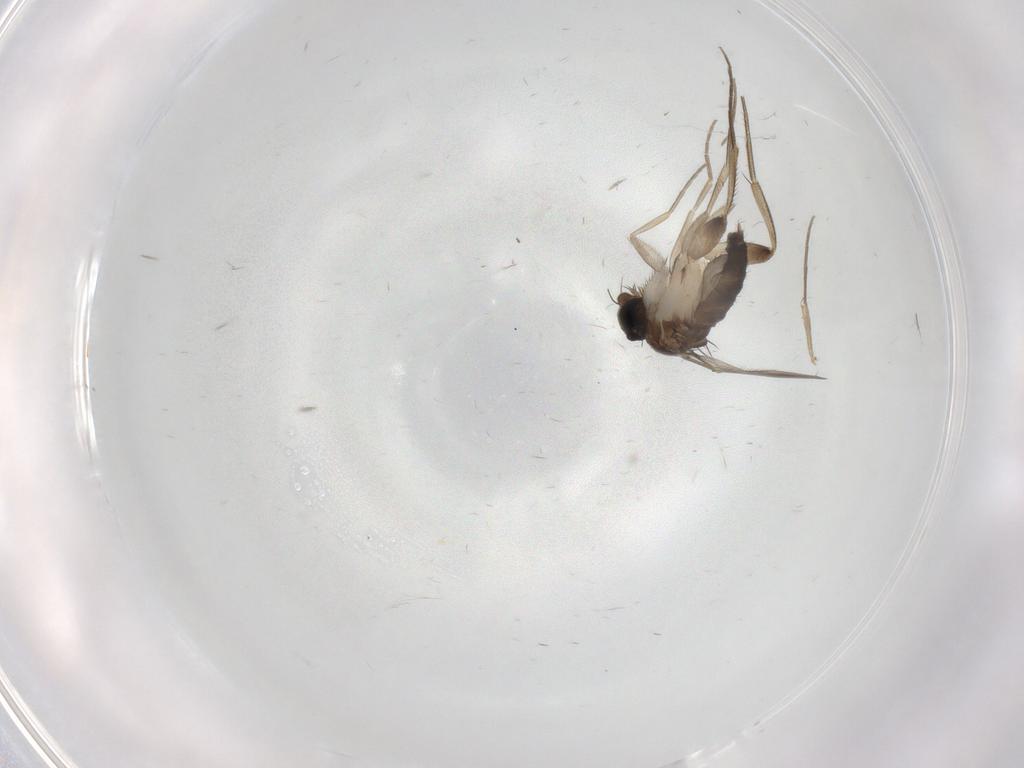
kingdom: Animalia
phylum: Arthropoda
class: Insecta
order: Diptera
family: Phoridae
